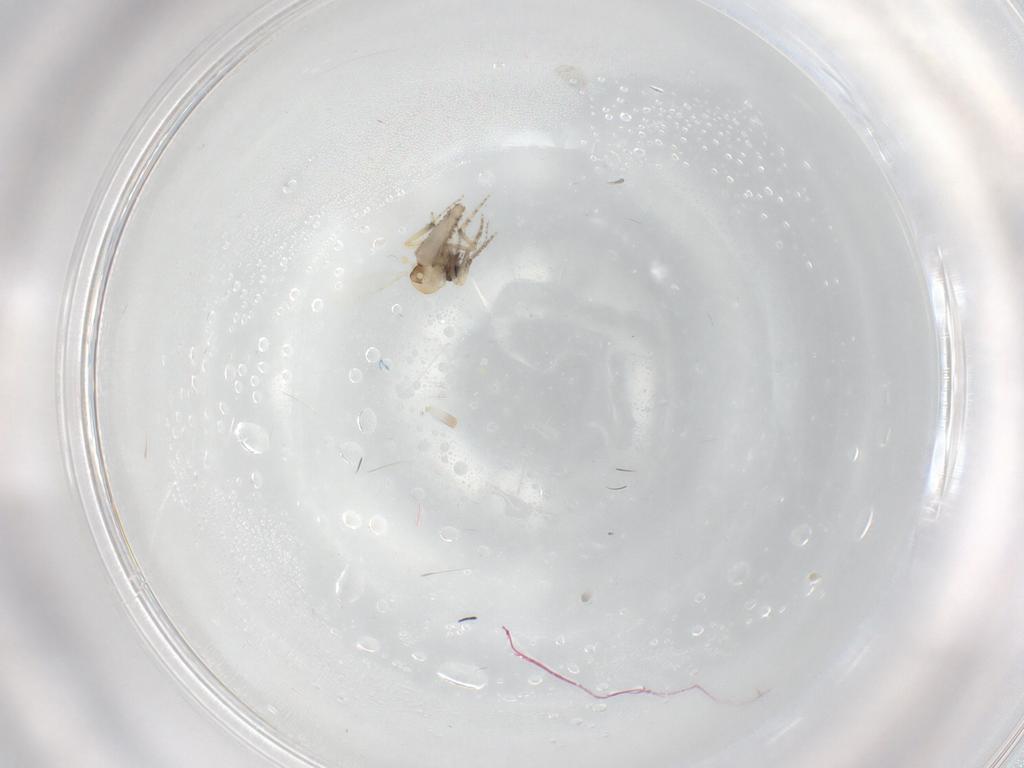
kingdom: Animalia
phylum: Arthropoda
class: Insecta
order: Diptera
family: Ceratopogonidae
